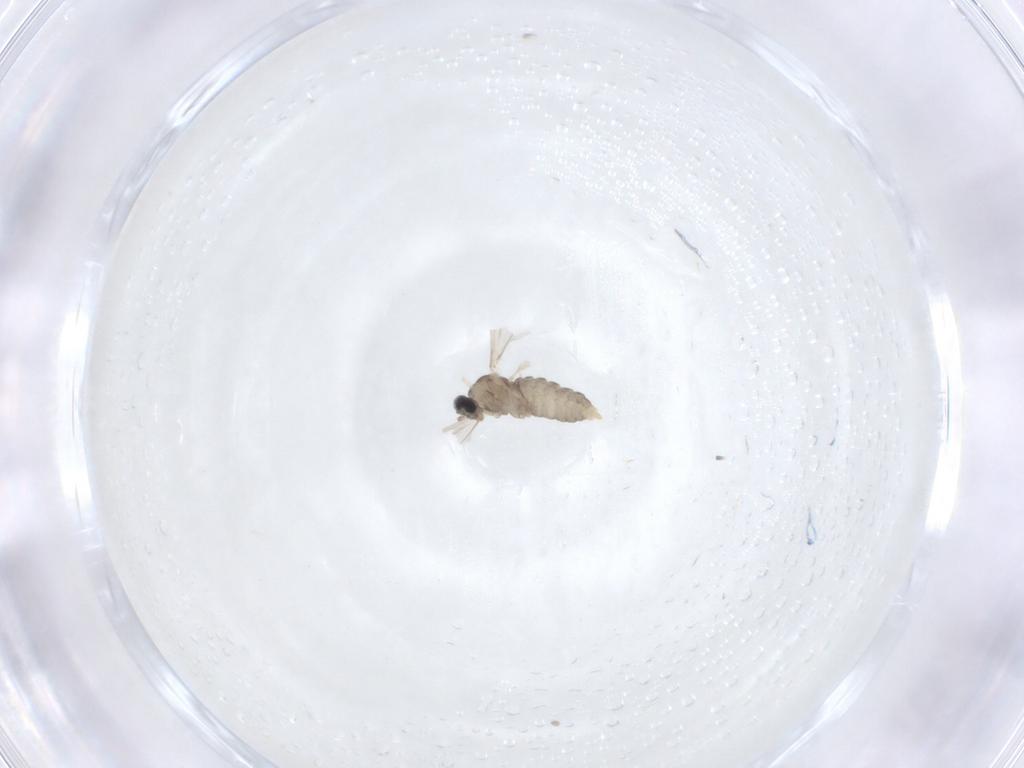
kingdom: Animalia
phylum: Arthropoda
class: Insecta
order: Diptera
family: Cecidomyiidae
